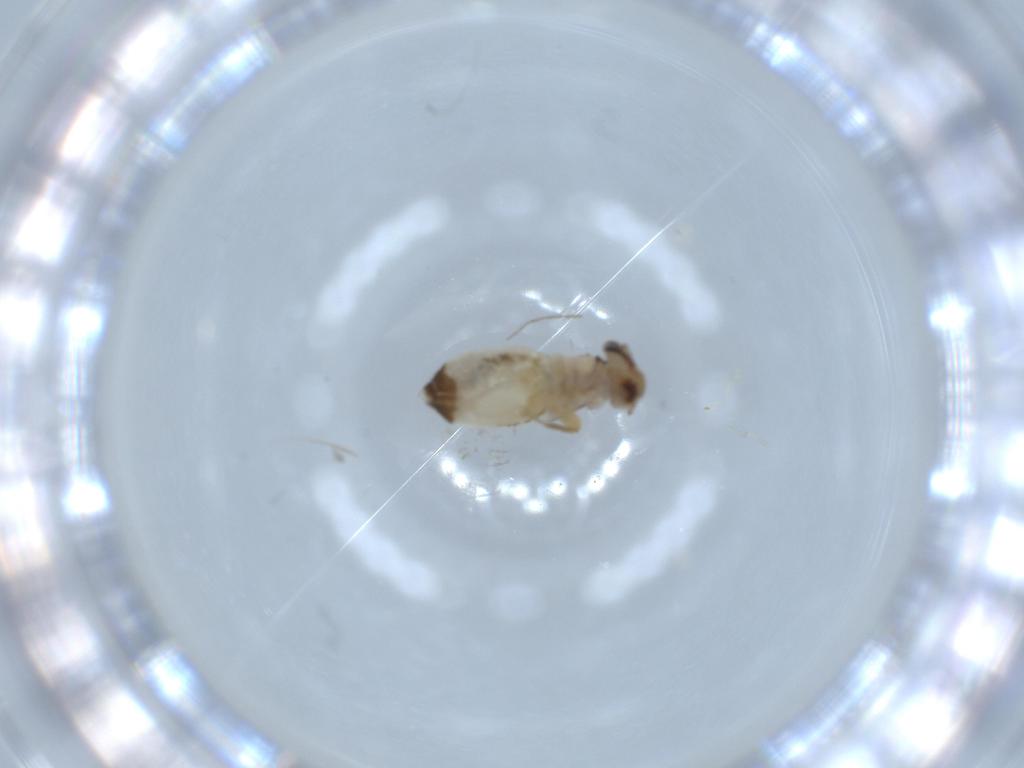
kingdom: Animalia
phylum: Arthropoda
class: Insecta
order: Psocodea
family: Caeciliusidae
